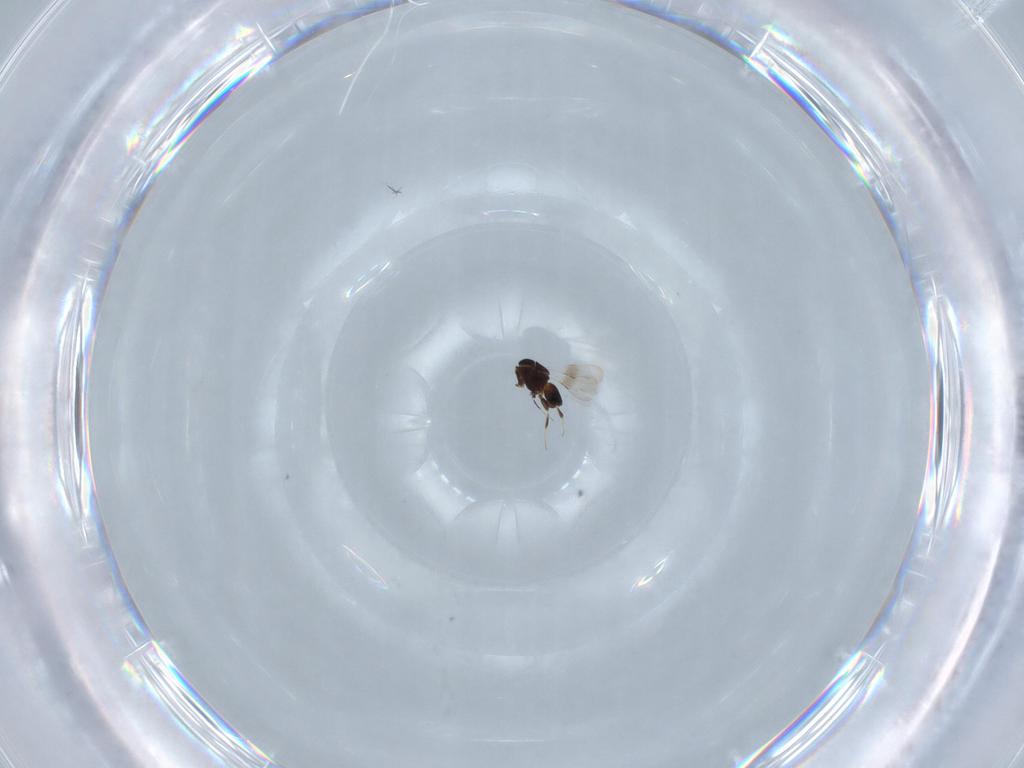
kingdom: Animalia
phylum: Arthropoda
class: Insecta
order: Hymenoptera
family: Ceraphronidae
